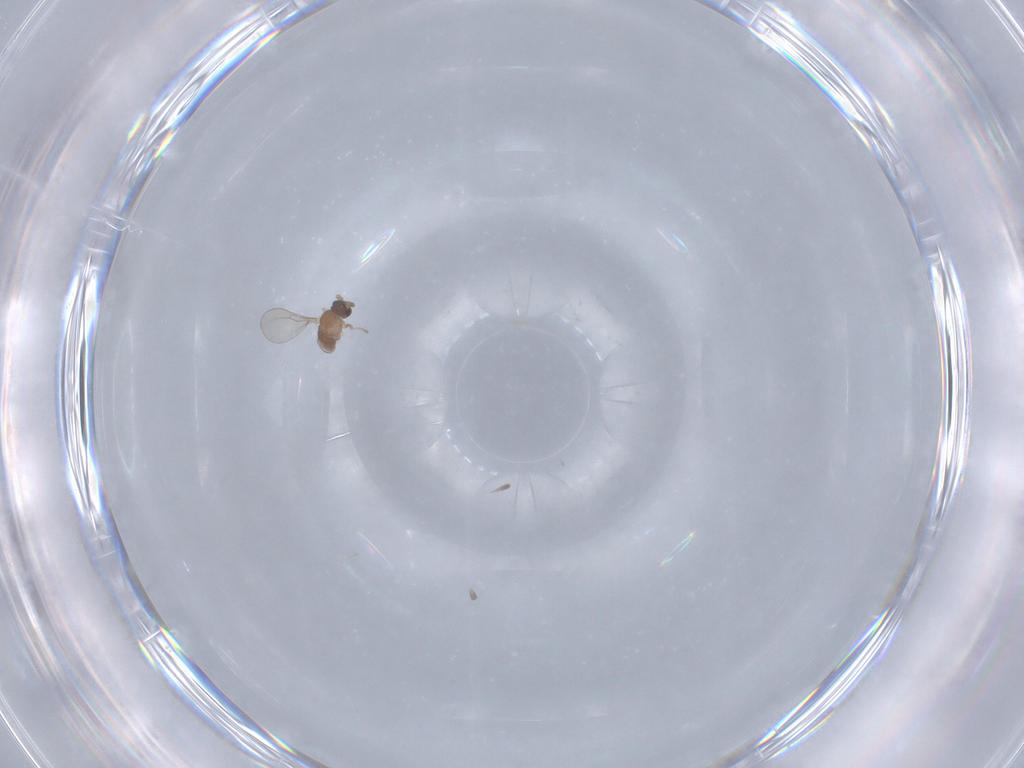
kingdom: Animalia
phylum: Arthropoda
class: Insecta
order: Diptera
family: Cecidomyiidae
